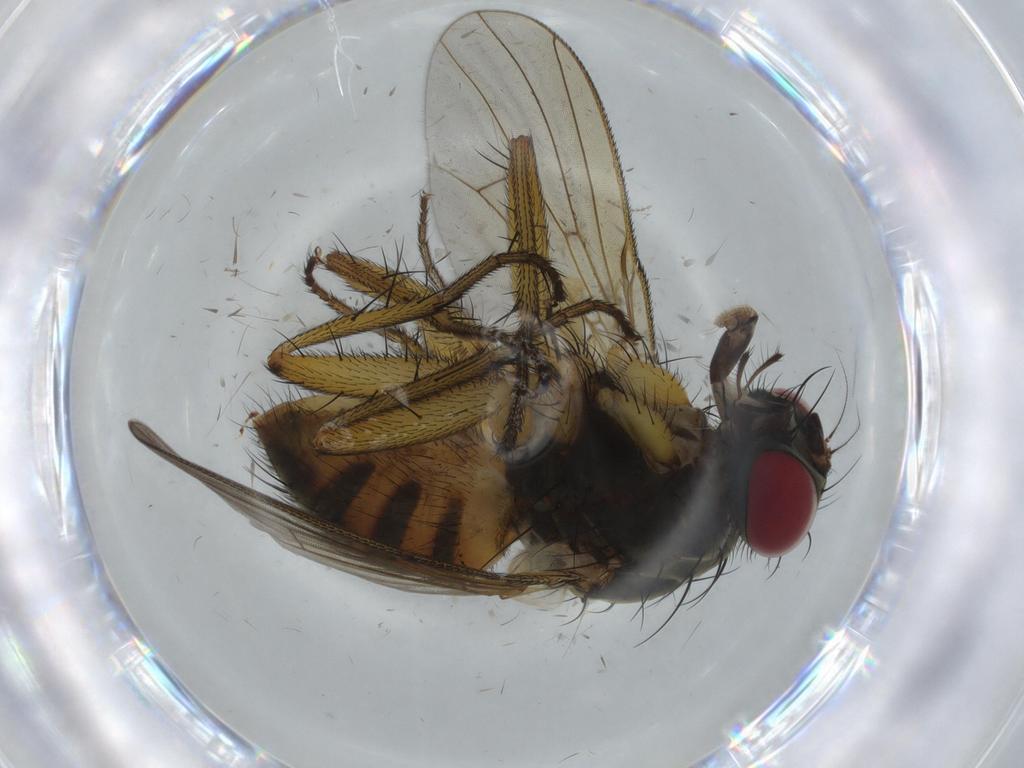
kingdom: Animalia
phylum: Arthropoda
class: Insecta
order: Diptera
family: Muscidae
